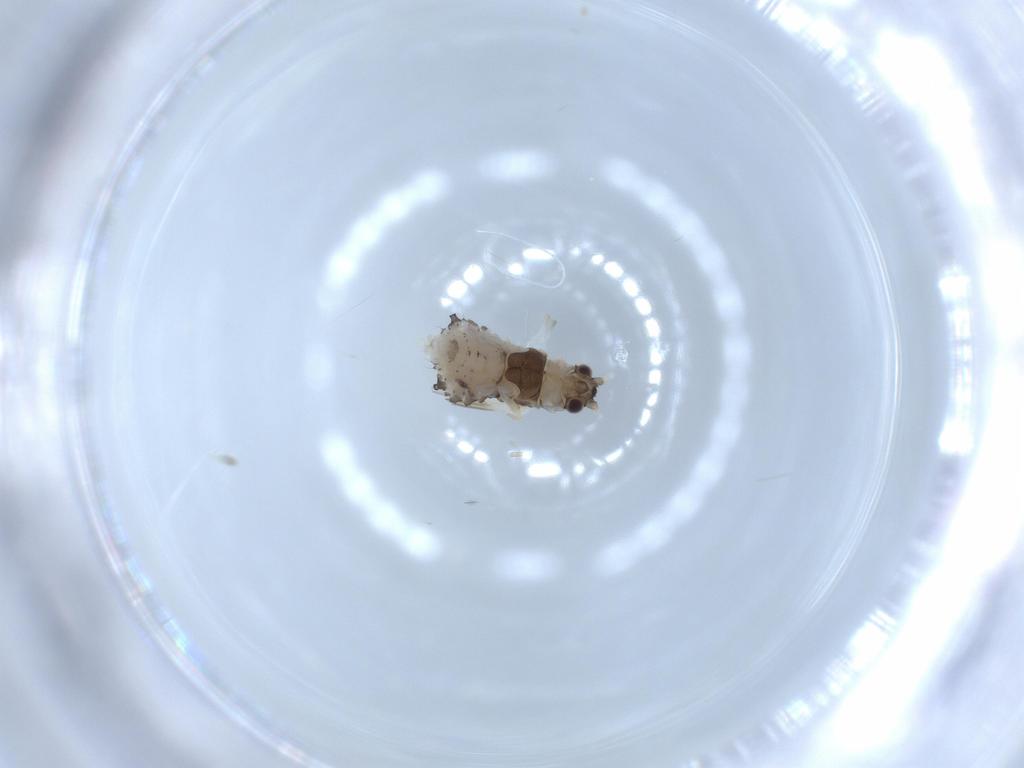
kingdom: Animalia
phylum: Arthropoda
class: Insecta
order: Hemiptera
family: Aphididae
